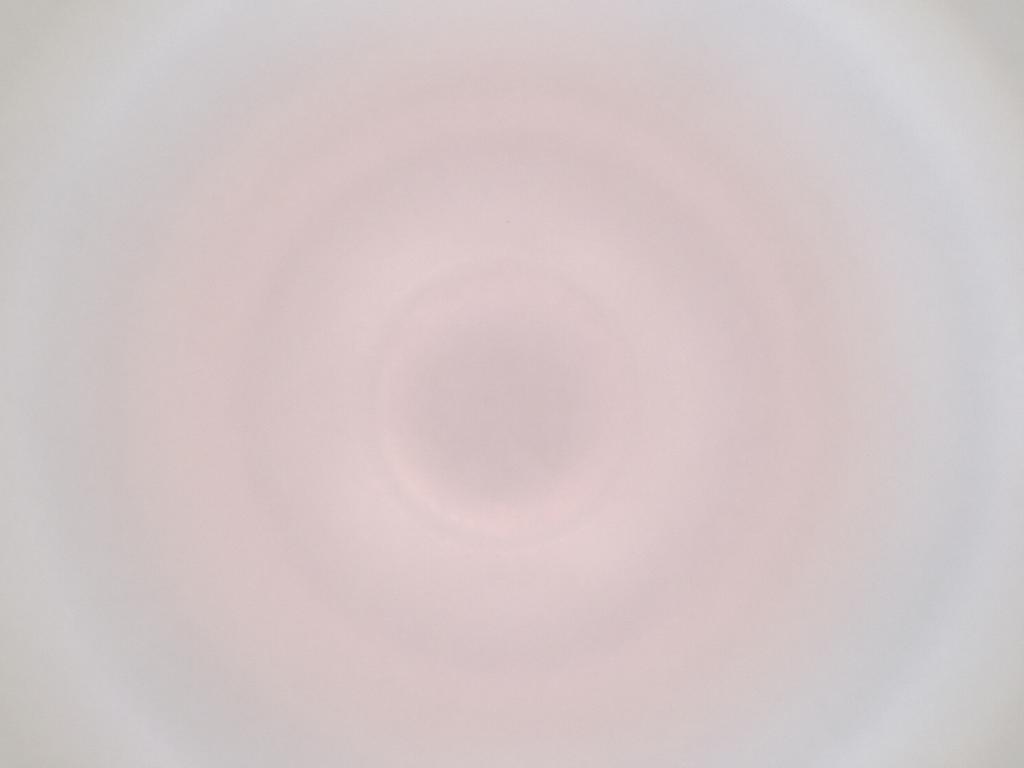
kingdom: Animalia
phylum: Arthropoda
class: Insecta
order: Diptera
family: Cecidomyiidae
